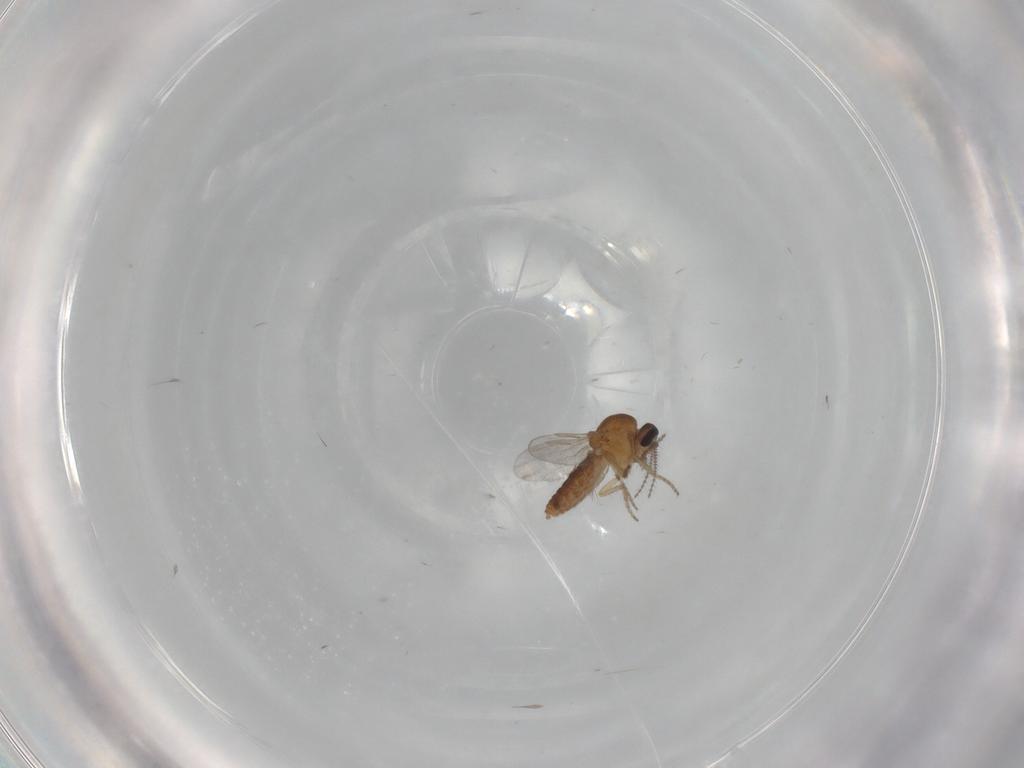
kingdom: Animalia
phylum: Arthropoda
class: Insecta
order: Diptera
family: Ceratopogonidae
